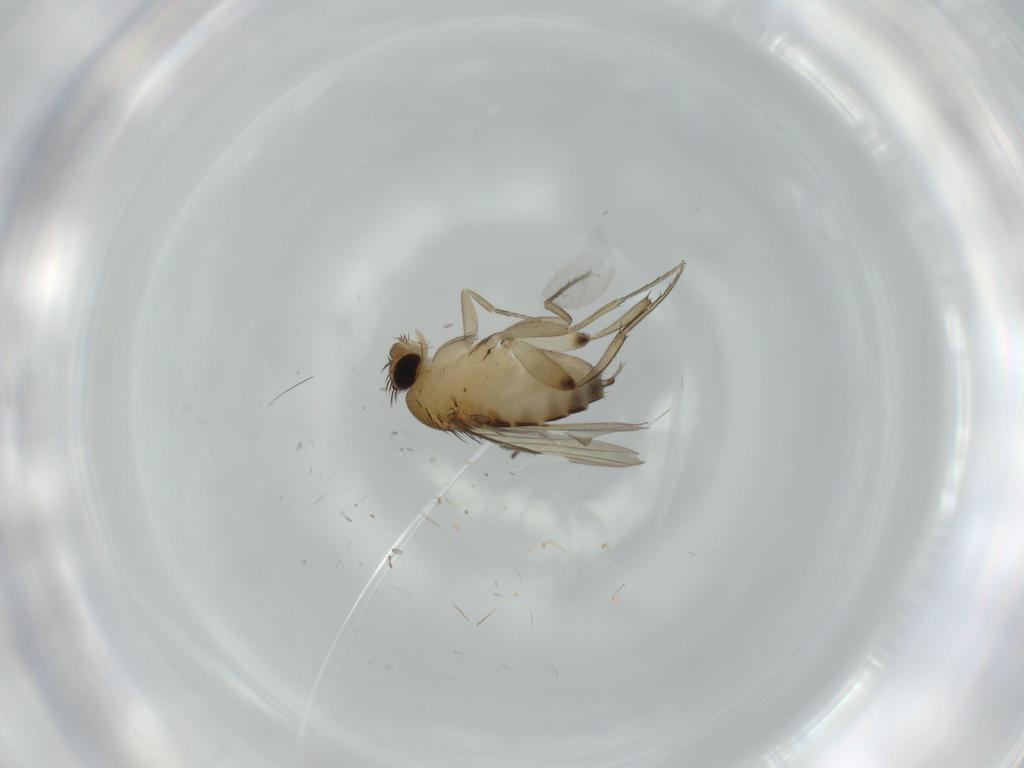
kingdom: Animalia
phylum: Arthropoda
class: Insecta
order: Diptera
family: Phoridae
